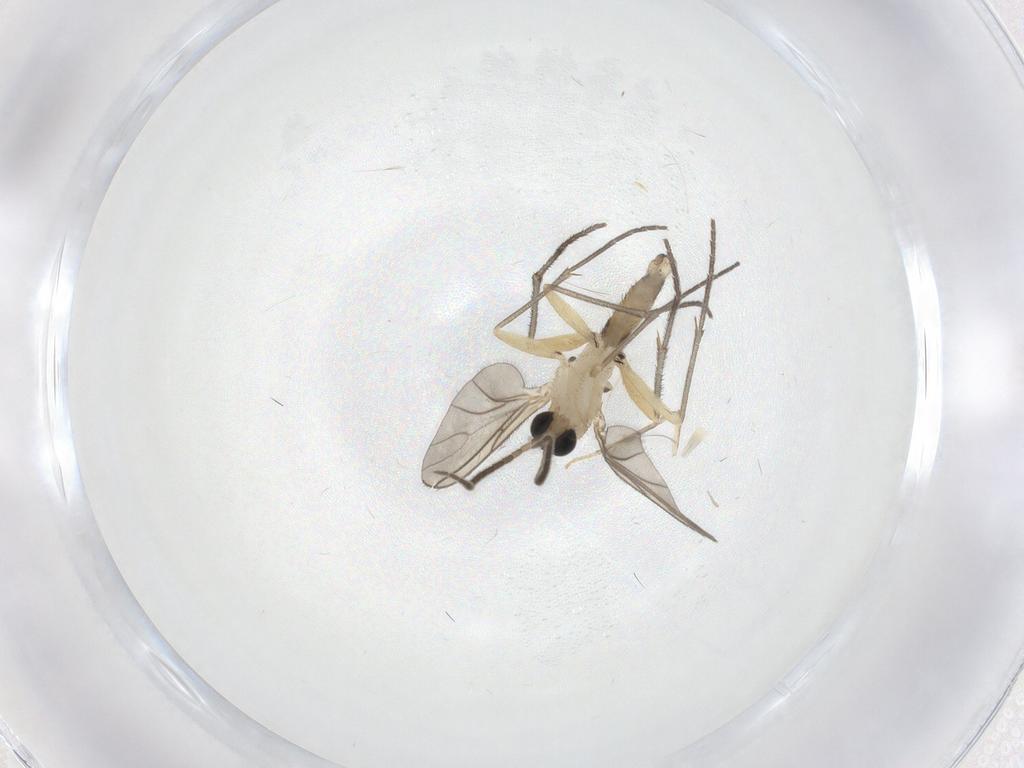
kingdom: Animalia
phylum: Arthropoda
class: Insecta
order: Diptera
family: Sciaridae
